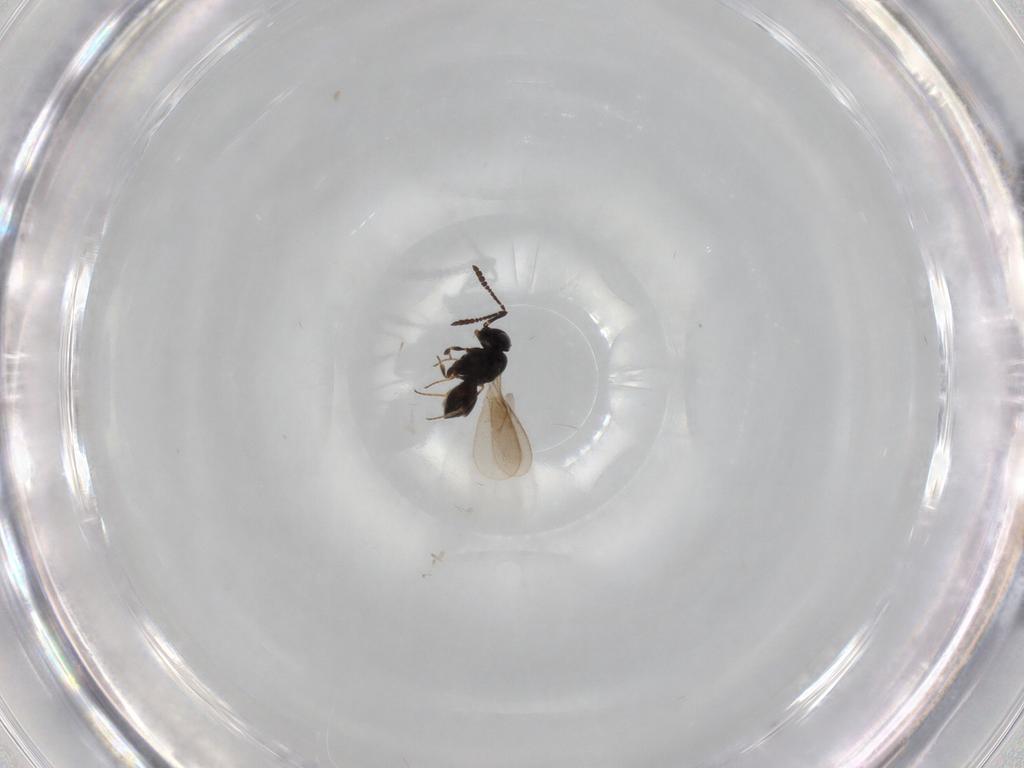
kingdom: Animalia
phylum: Arthropoda
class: Insecta
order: Hymenoptera
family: Scelionidae
